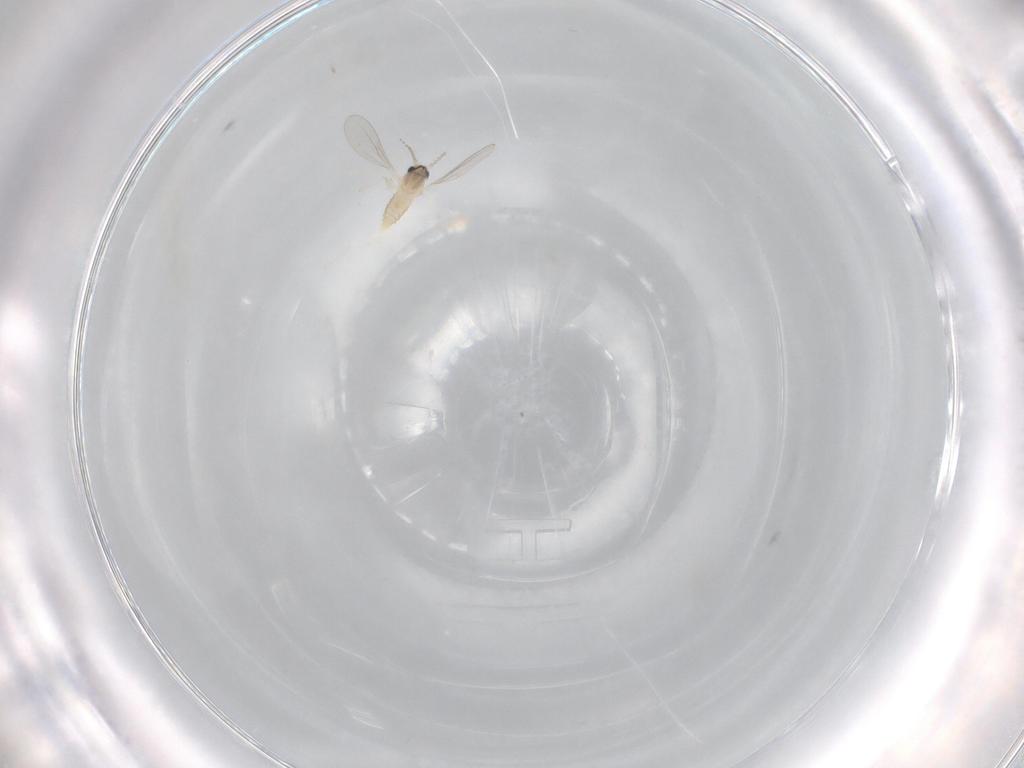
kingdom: Animalia
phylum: Arthropoda
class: Insecta
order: Diptera
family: Cecidomyiidae
